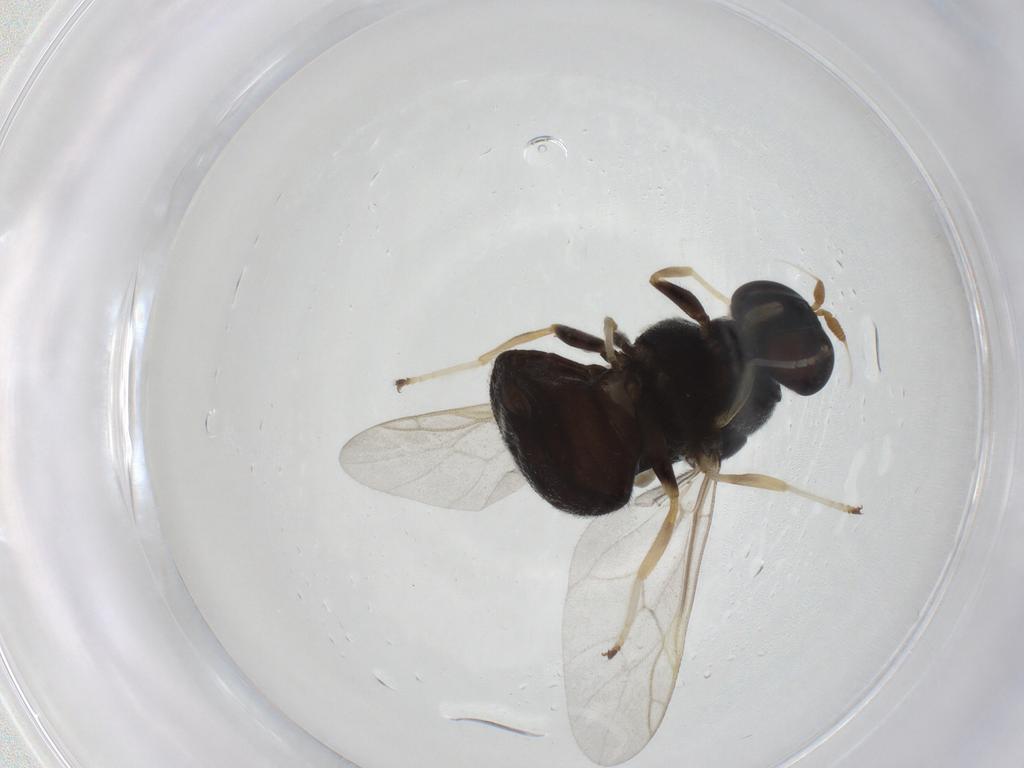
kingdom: Animalia
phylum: Arthropoda
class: Insecta
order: Diptera
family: Stratiomyidae
